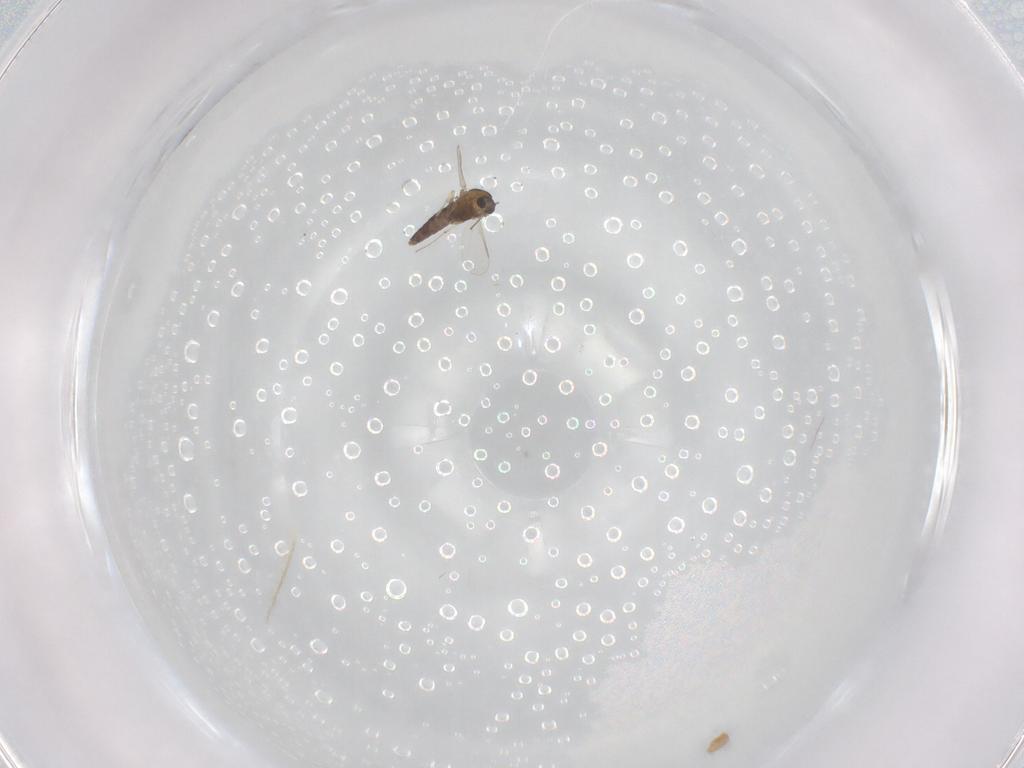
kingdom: Animalia
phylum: Arthropoda
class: Insecta
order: Diptera
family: Chironomidae
